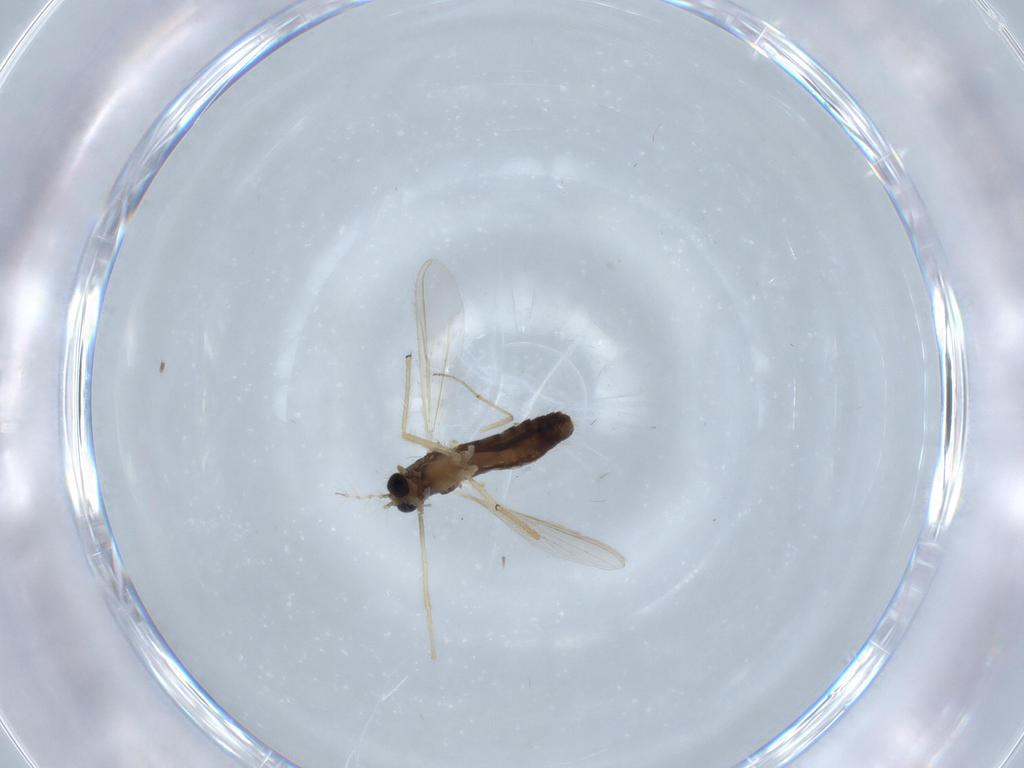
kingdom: Animalia
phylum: Arthropoda
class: Insecta
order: Diptera
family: Chironomidae
